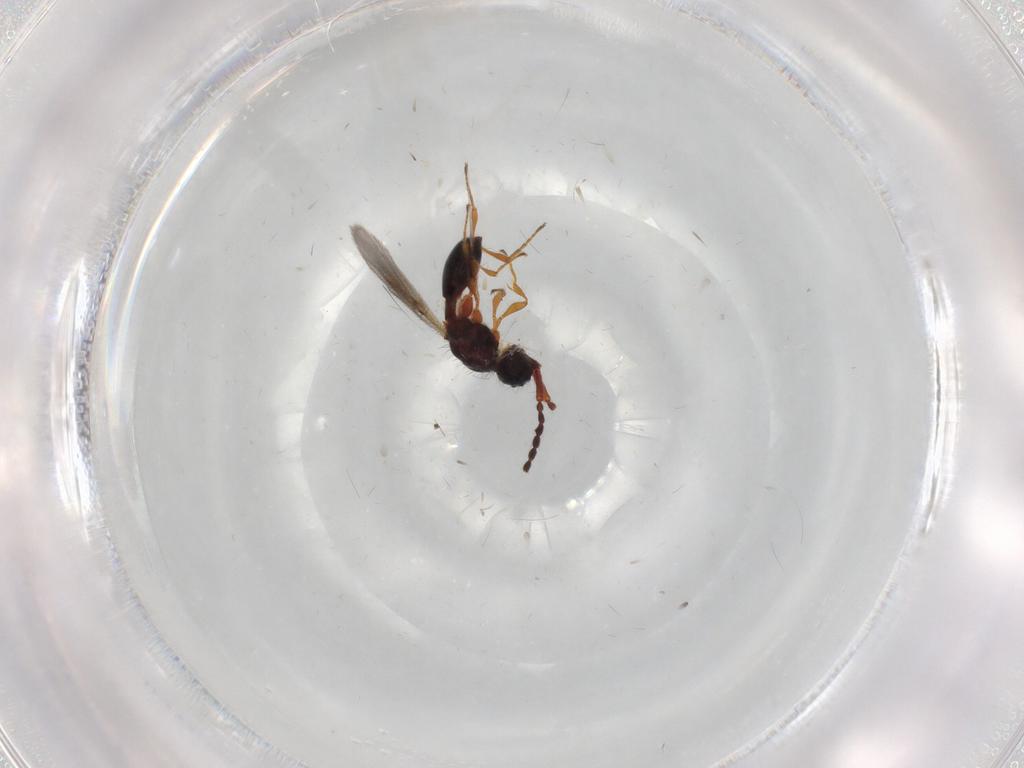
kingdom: Animalia
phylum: Arthropoda
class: Insecta
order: Hymenoptera
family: Diapriidae
